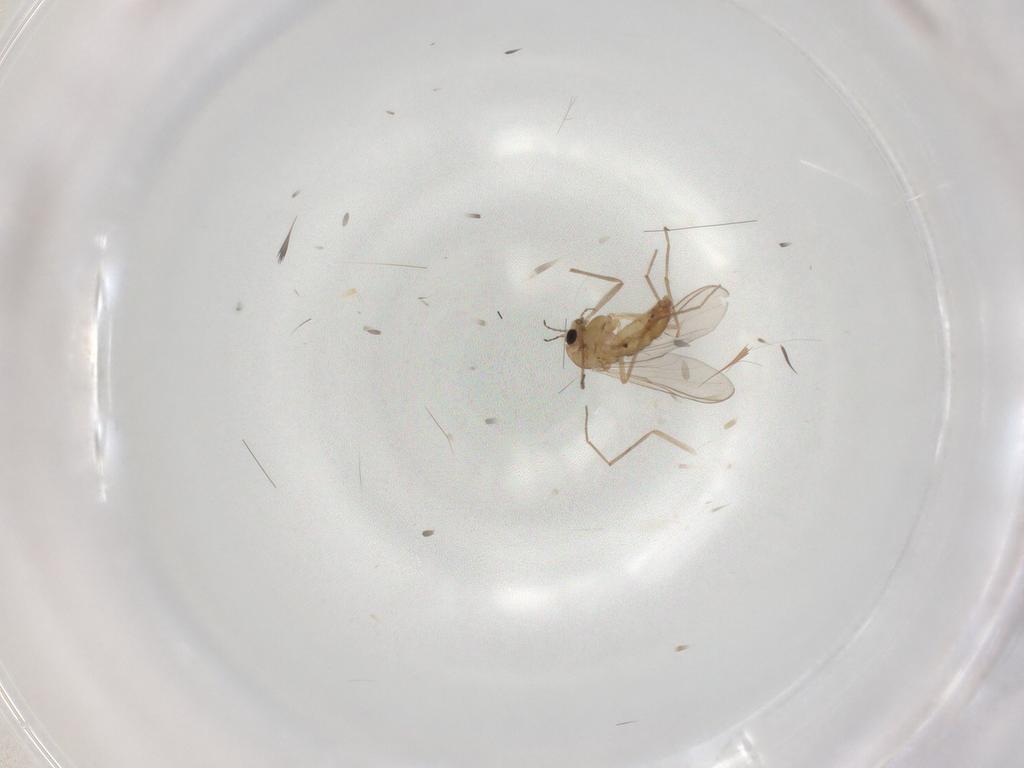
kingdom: Animalia
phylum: Arthropoda
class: Insecta
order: Diptera
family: Chironomidae
